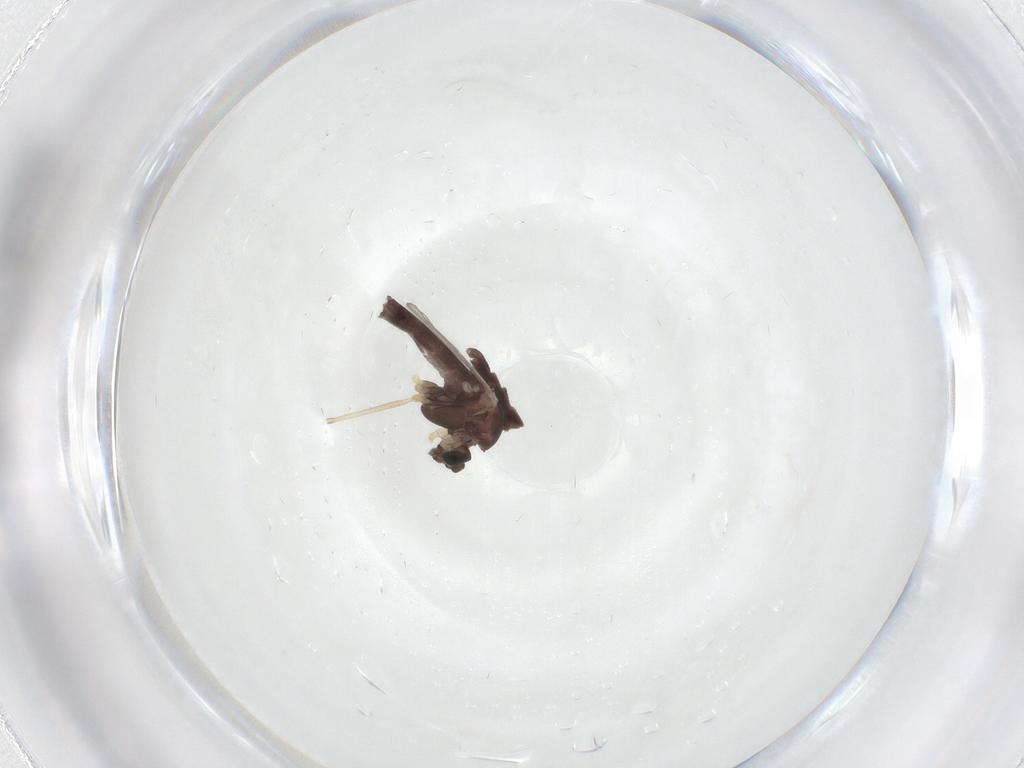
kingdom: Animalia
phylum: Arthropoda
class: Insecta
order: Diptera
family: Chironomidae
